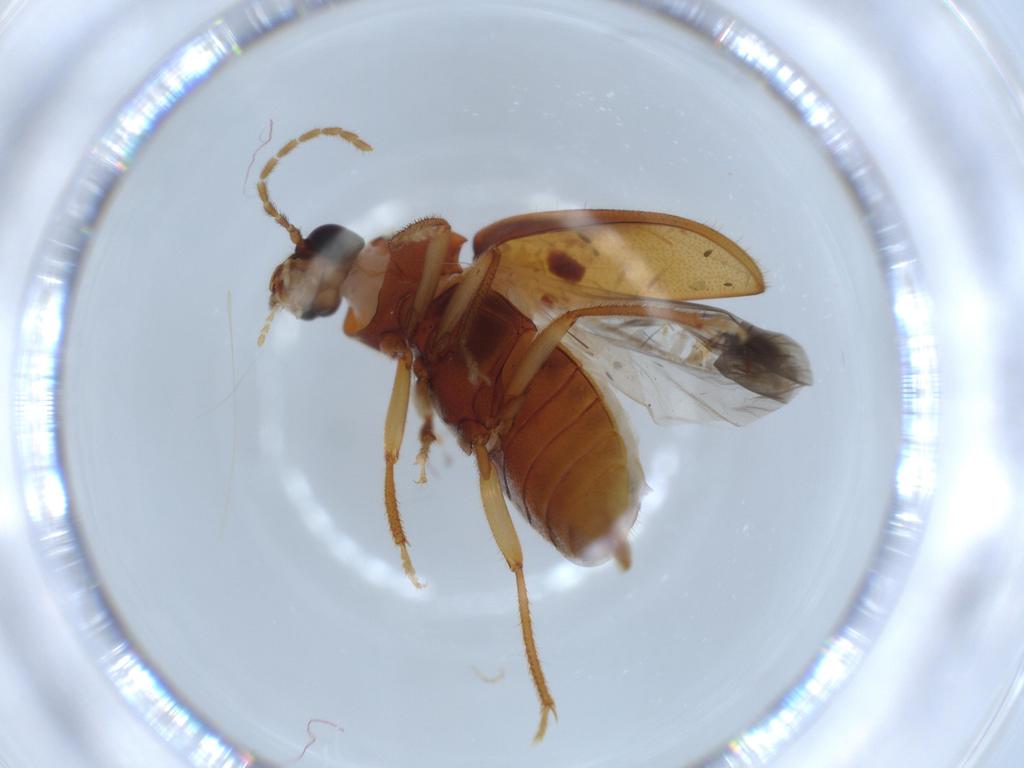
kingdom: Animalia
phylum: Arthropoda
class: Insecta
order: Coleoptera
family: Ptilodactylidae
